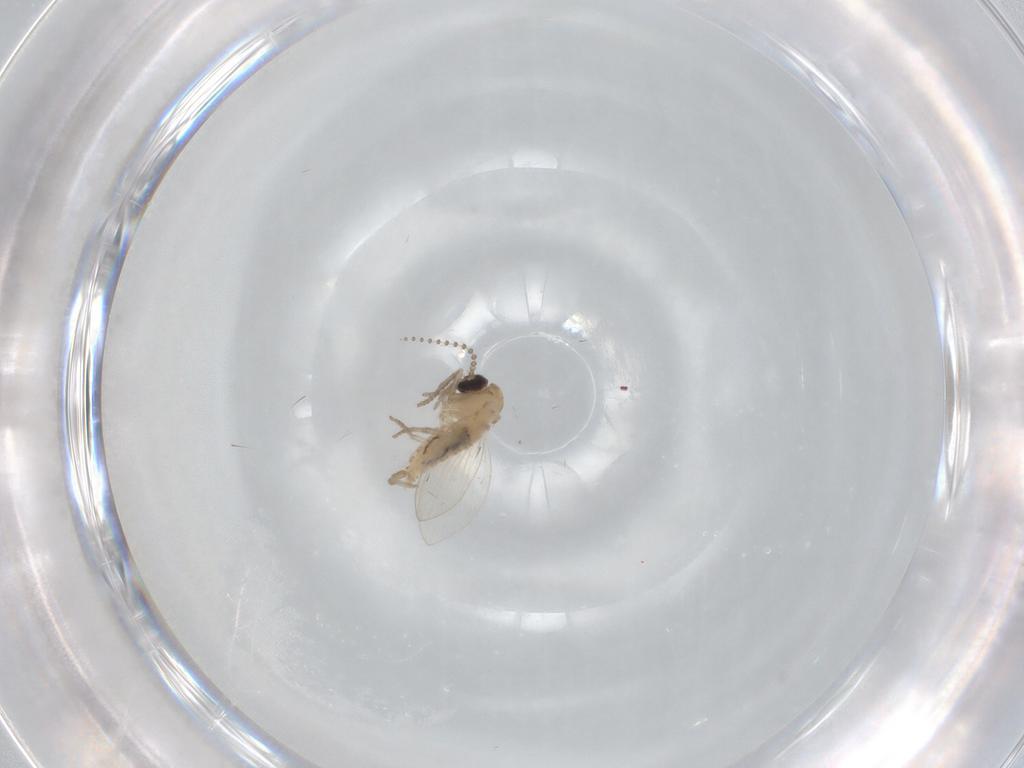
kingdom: Animalia
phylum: Arthropoda
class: Insecta
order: Diptera
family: Psychodidae
